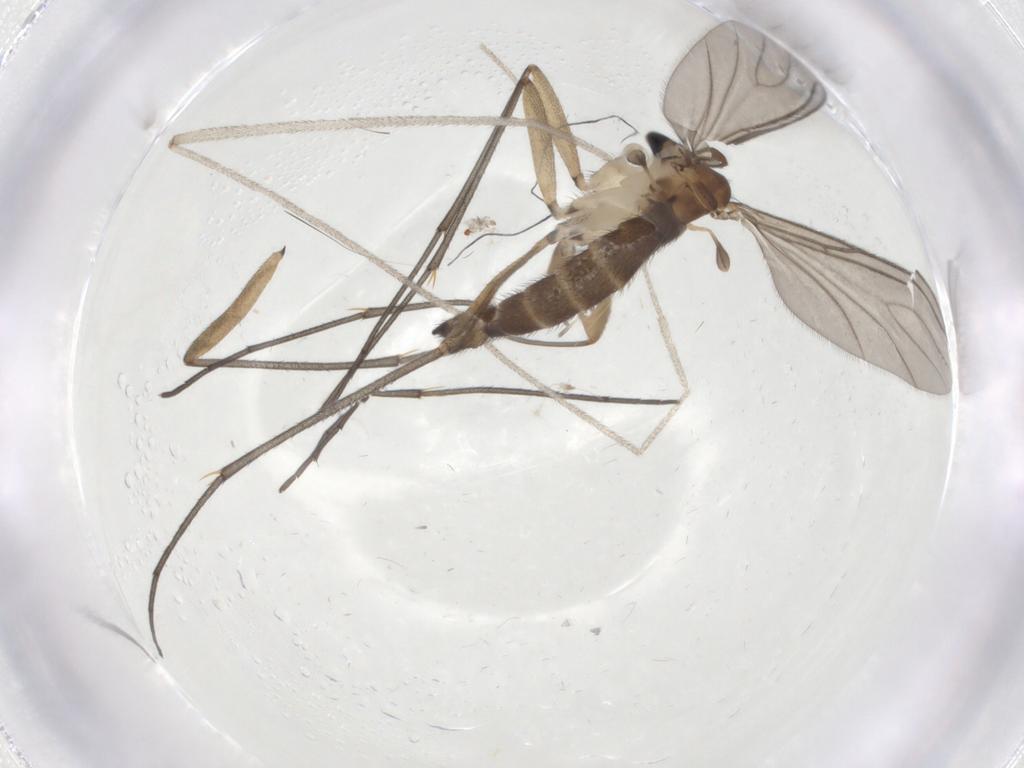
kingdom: Animalia
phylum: Arthropoda
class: Insecta
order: Diptera
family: Sciaridae
